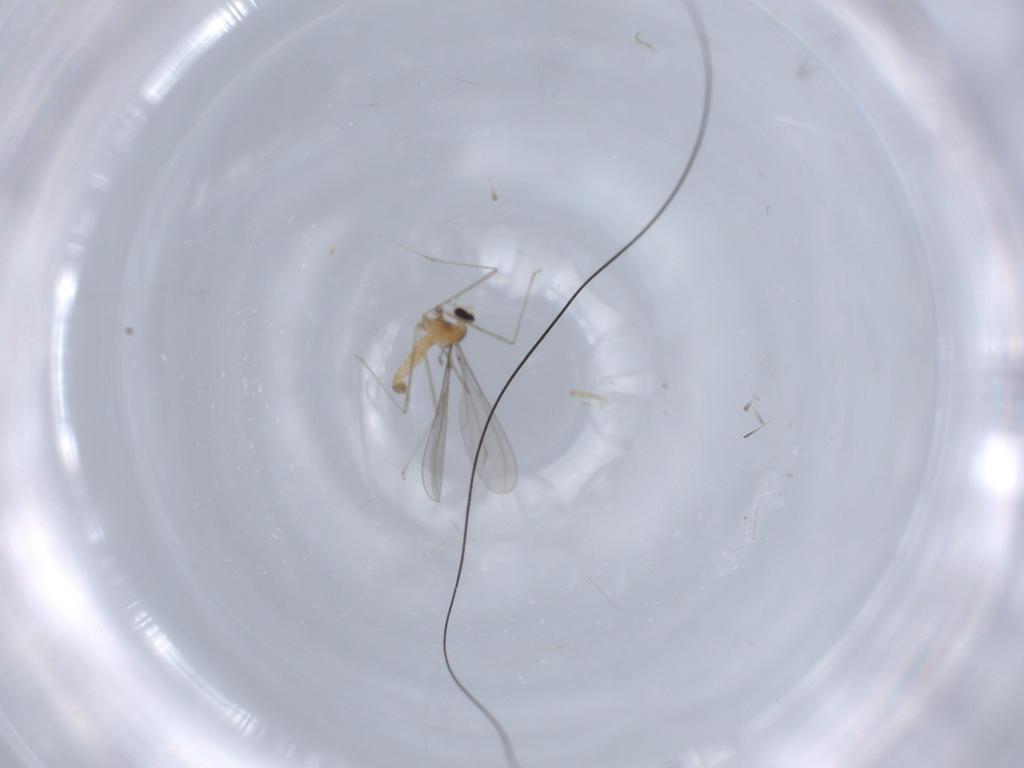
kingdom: Animalia
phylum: Arthropoda
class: Insecta
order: Diptera
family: Cecidomyiidae
